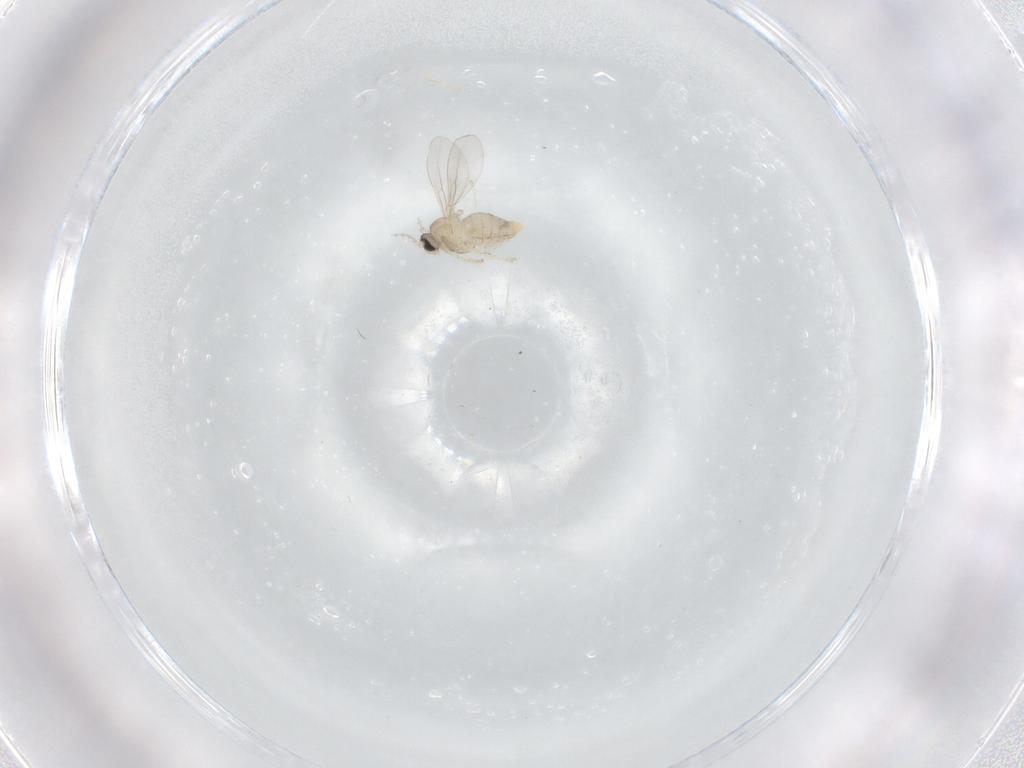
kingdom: Animalia
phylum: Arthropoda
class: Insecta
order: Diptera
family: Cecidomyiidae
